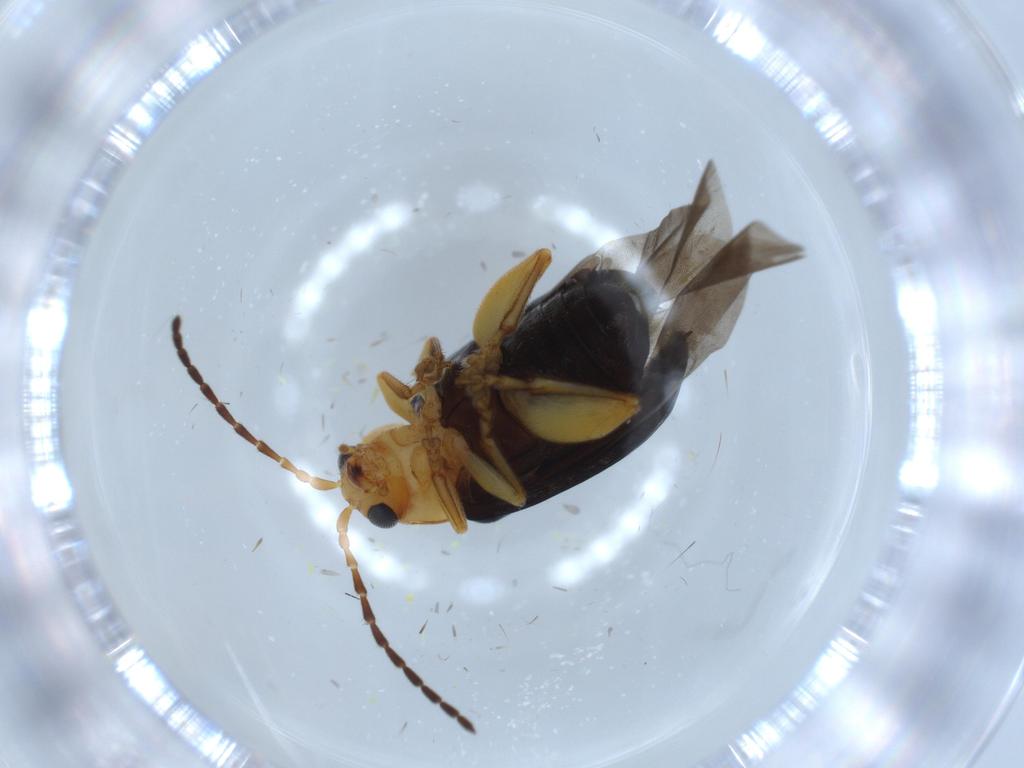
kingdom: Animalia
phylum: Arthropoda
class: Insecta
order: Coleoptera
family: Chrysomelidae
